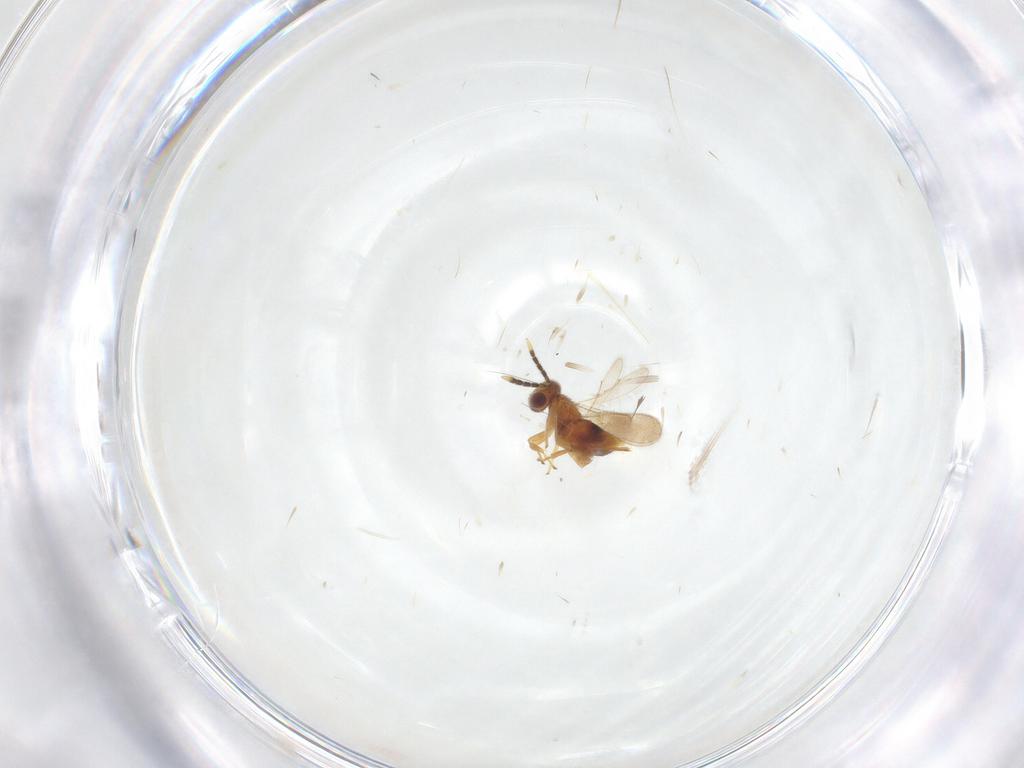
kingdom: Animalia
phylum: Arthropoda
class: Insecta
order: Hymenoptera
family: Aphelinidae
